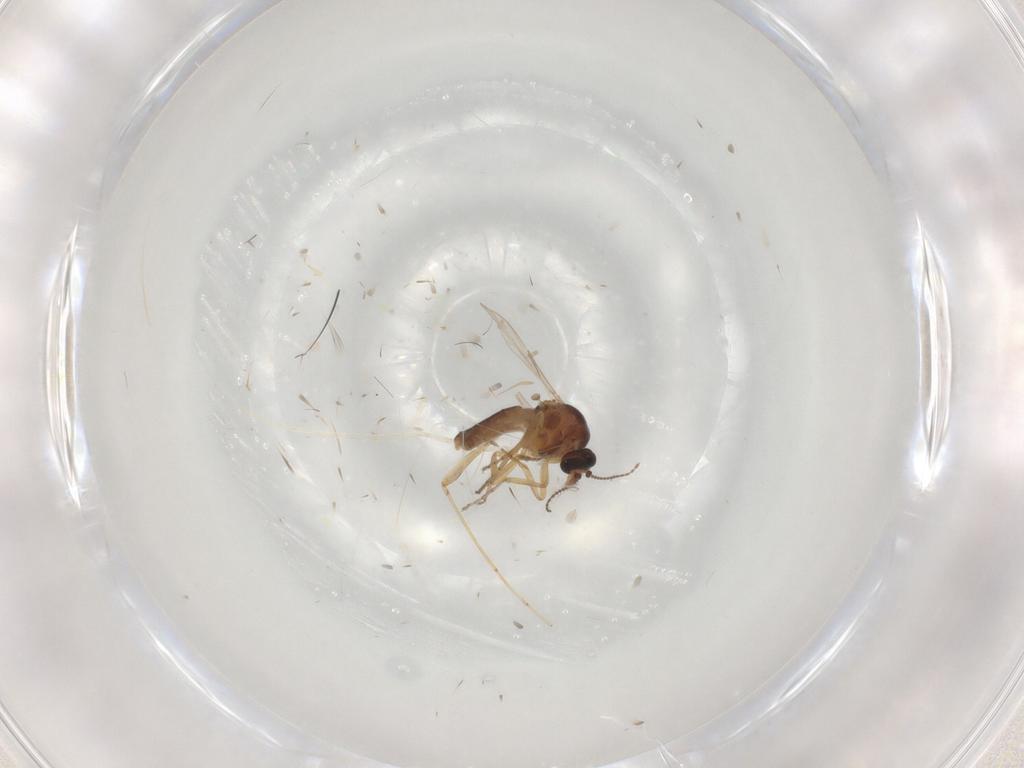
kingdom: Animalia
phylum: Arthropoda
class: Insecta
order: Diptera
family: Ceratopogonidae
